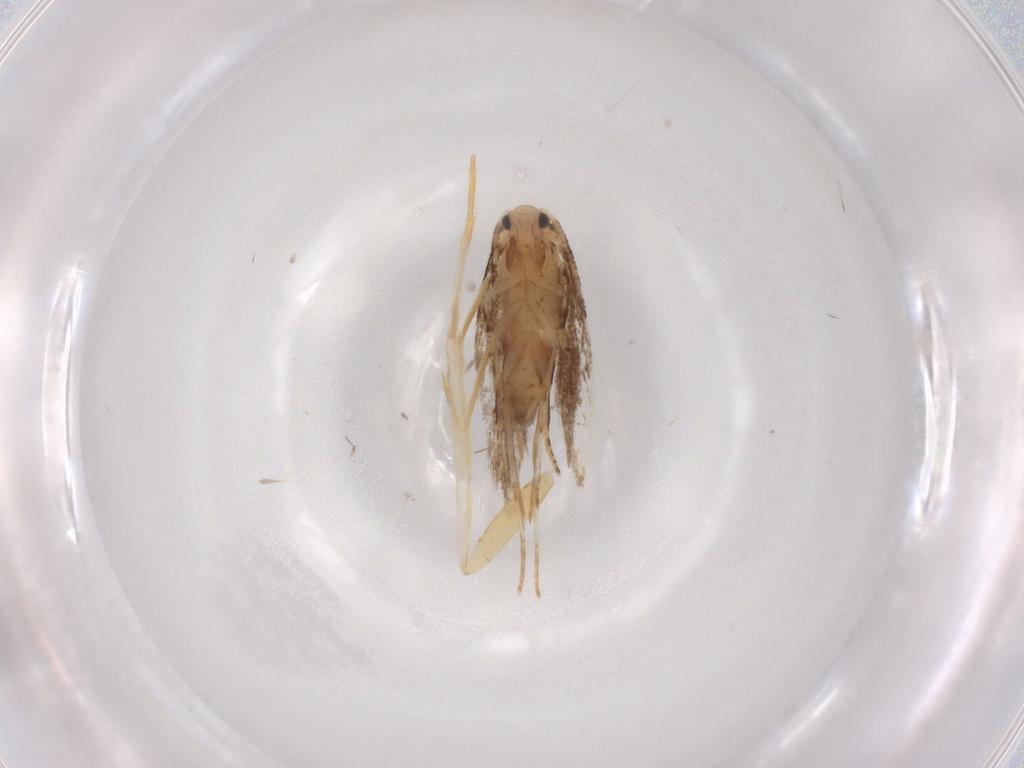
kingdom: Animalia
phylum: Arthropoda
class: Insecta
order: Lepidoptera
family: Lecithoceridae
